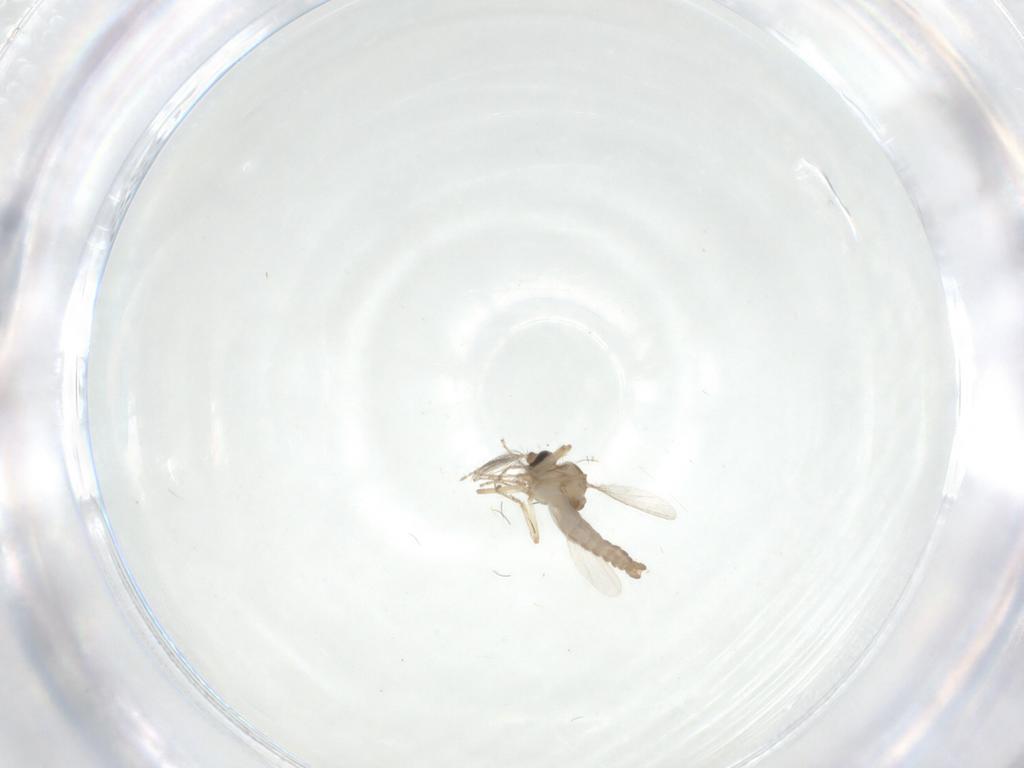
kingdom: Animalia
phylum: Arthropoda
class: Insecta
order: Diptera
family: Ceratopogonidae
